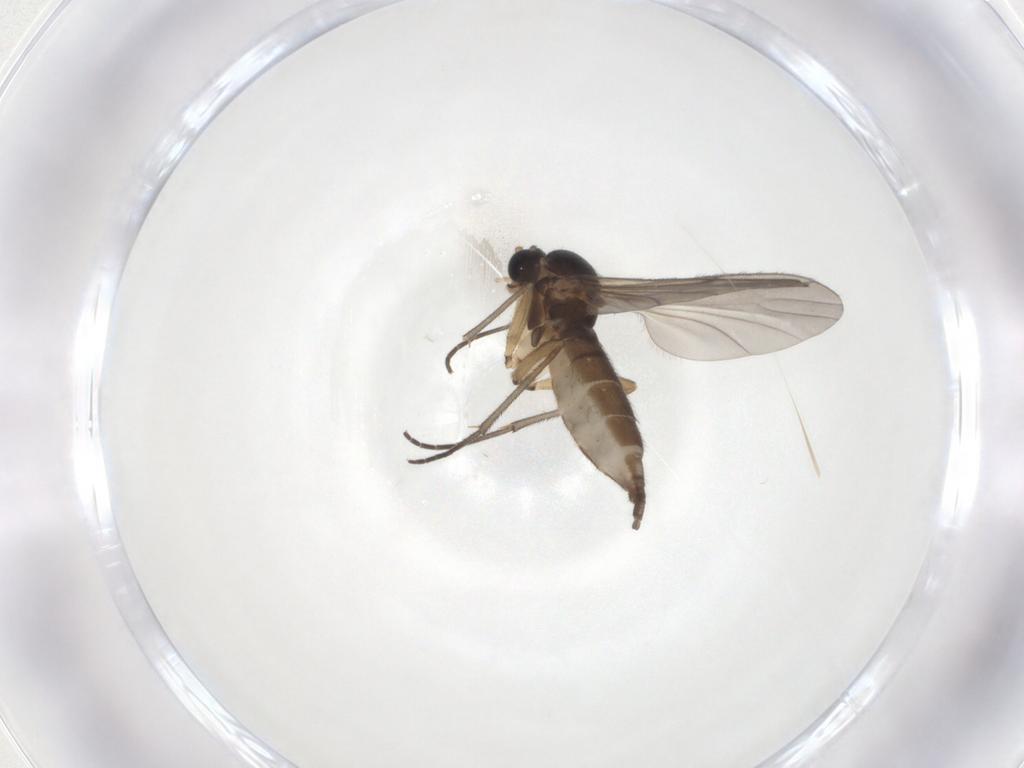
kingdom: Animalia
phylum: Arthropoda
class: Insecta
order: Diptera
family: Sciaridae
